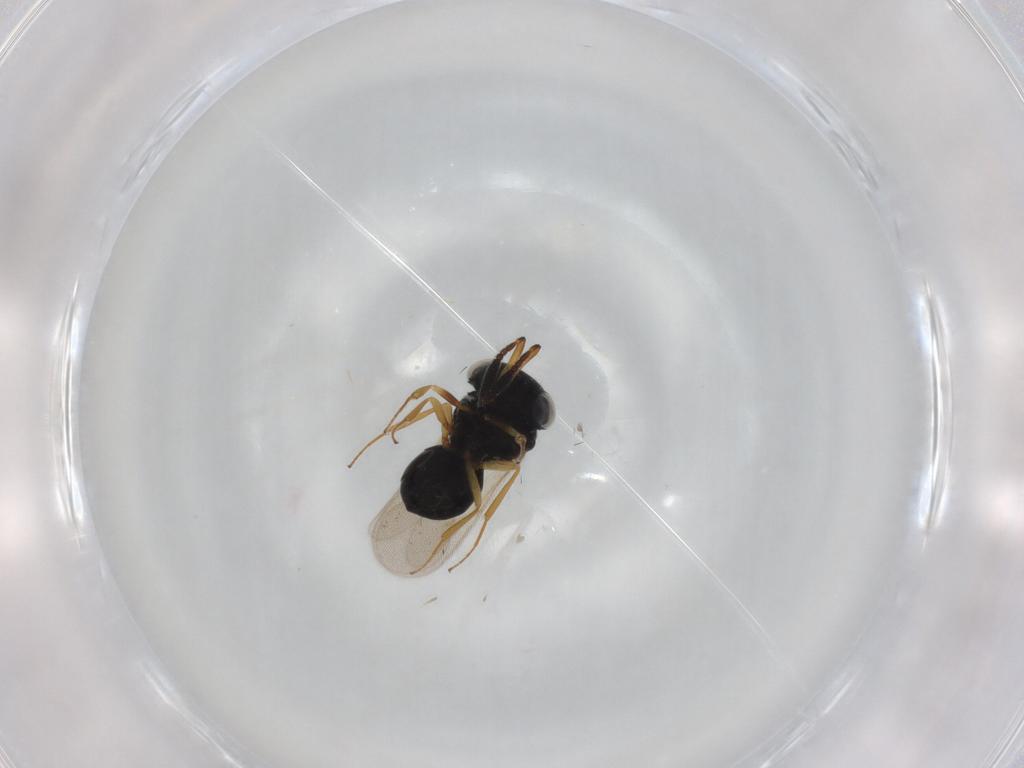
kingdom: Animalia
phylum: Arthropoda
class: Insecta
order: Hymenoptera
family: Scelionidae
